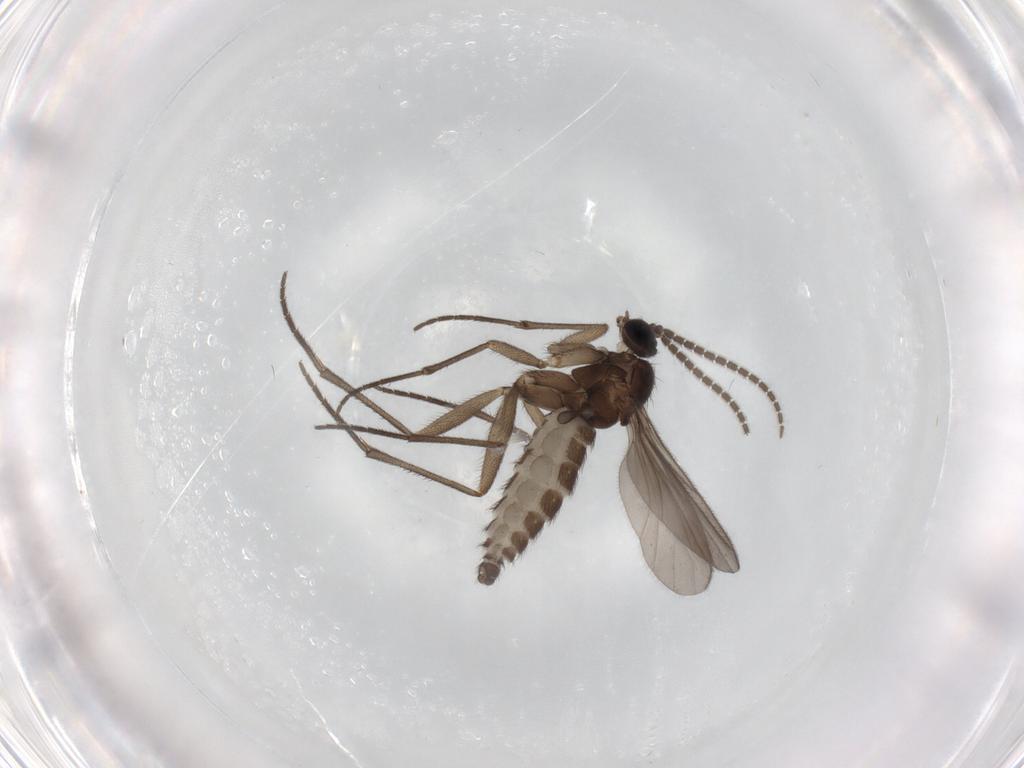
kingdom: Animalia
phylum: Arthropoda
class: Insecta
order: Diptera
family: Sciaridae
